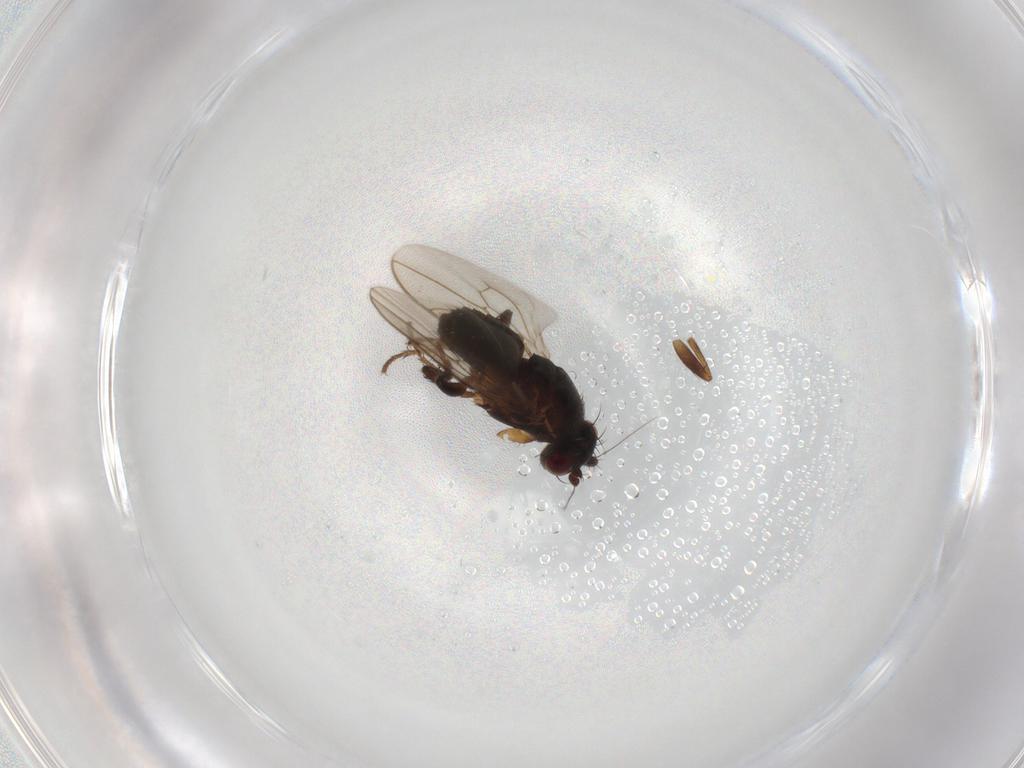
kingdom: Animalia
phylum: Arthropoda
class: Insecta
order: Diptera
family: Sphaeroceridae
